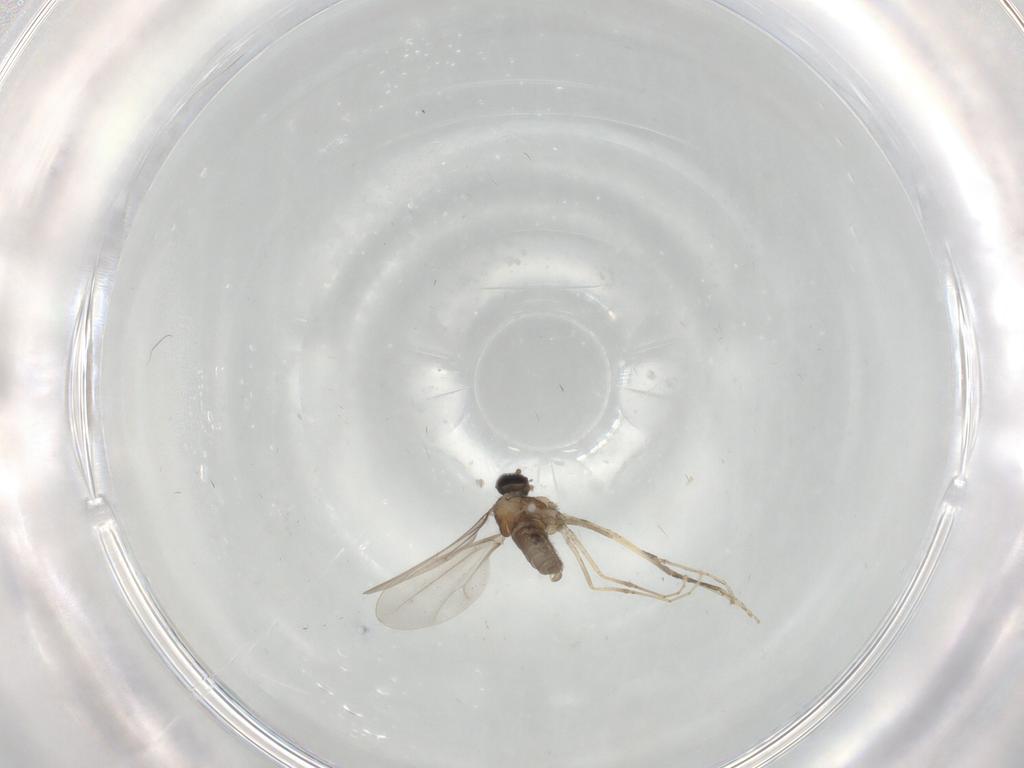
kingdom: Animalia
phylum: Arthropoda
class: Insecta
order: Diptera
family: Cecidomyiidae
